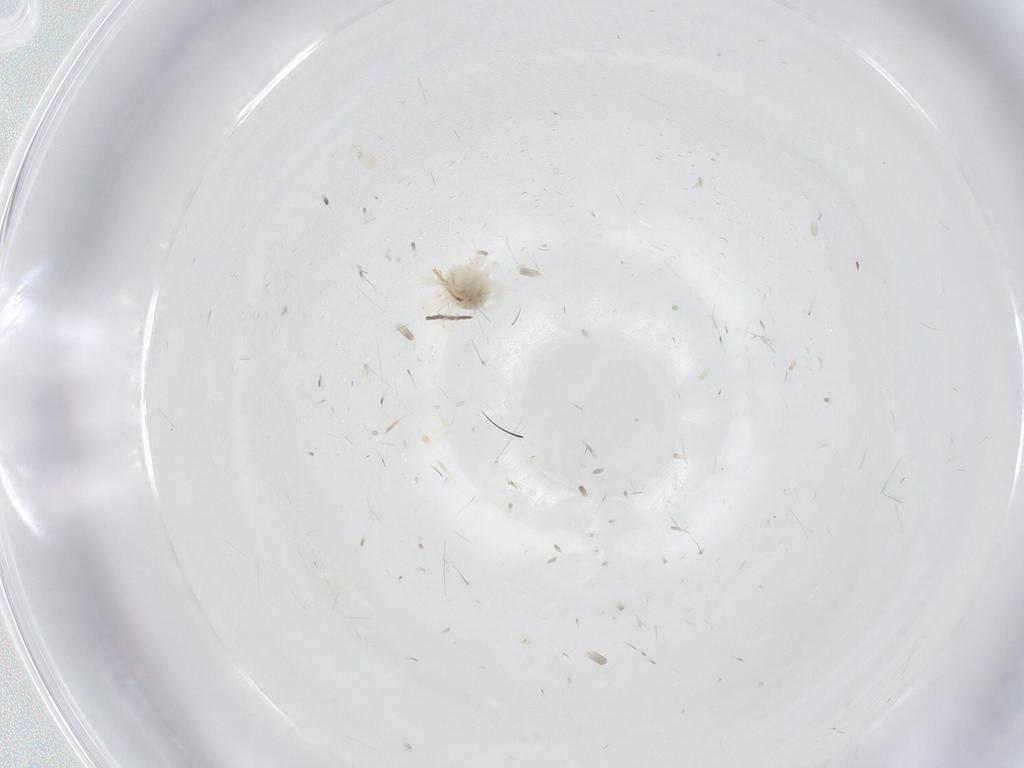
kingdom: Animalia
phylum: Arthropoda
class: Arachnida
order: Trombidiformes
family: Anystidae
